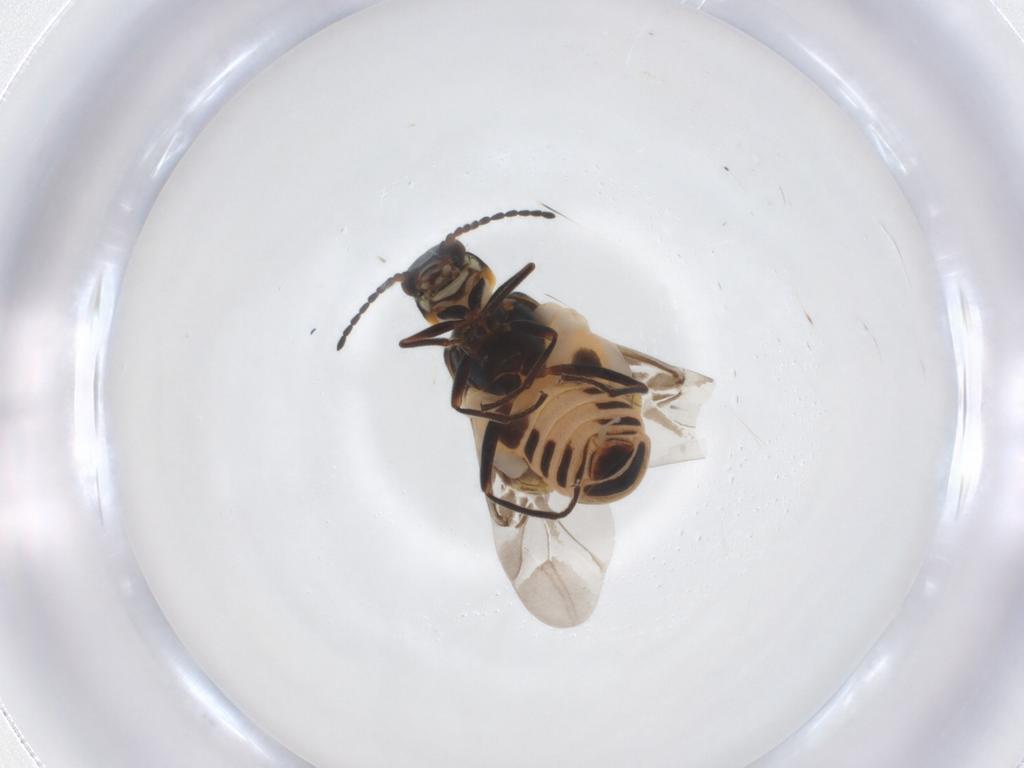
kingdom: Animalia
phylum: Arthropoda
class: Insecta
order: Coleoptera
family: Melyridae
